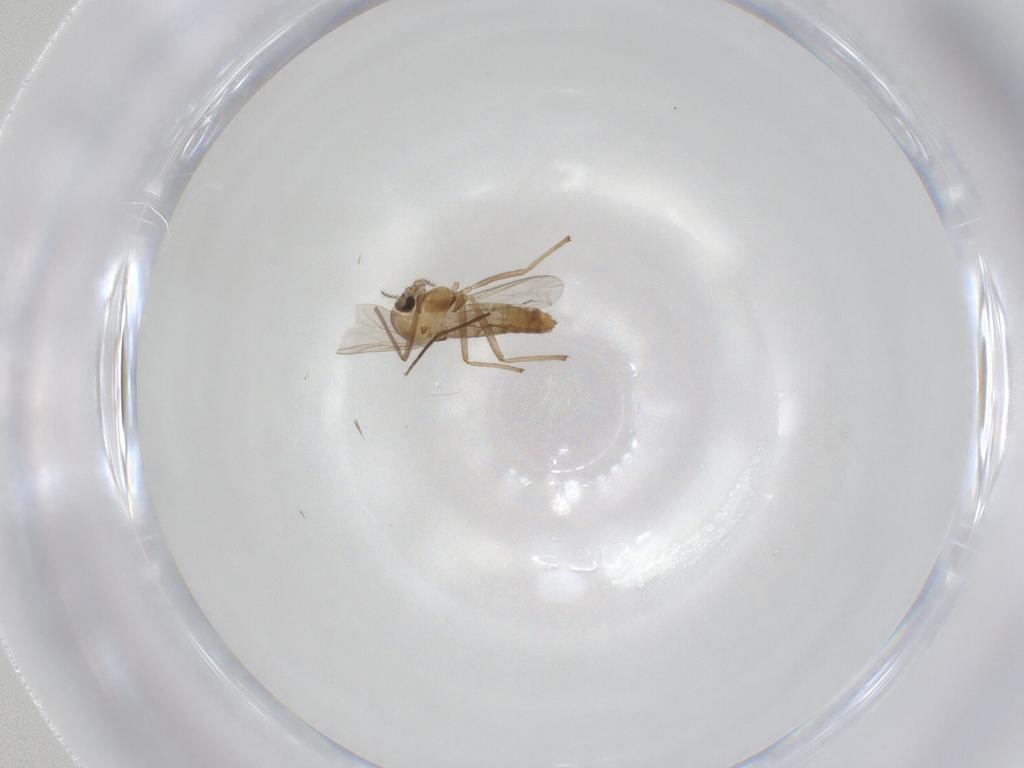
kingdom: Animalia
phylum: Arthropoda
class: Insecta
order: Diptera
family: Chironomidae
